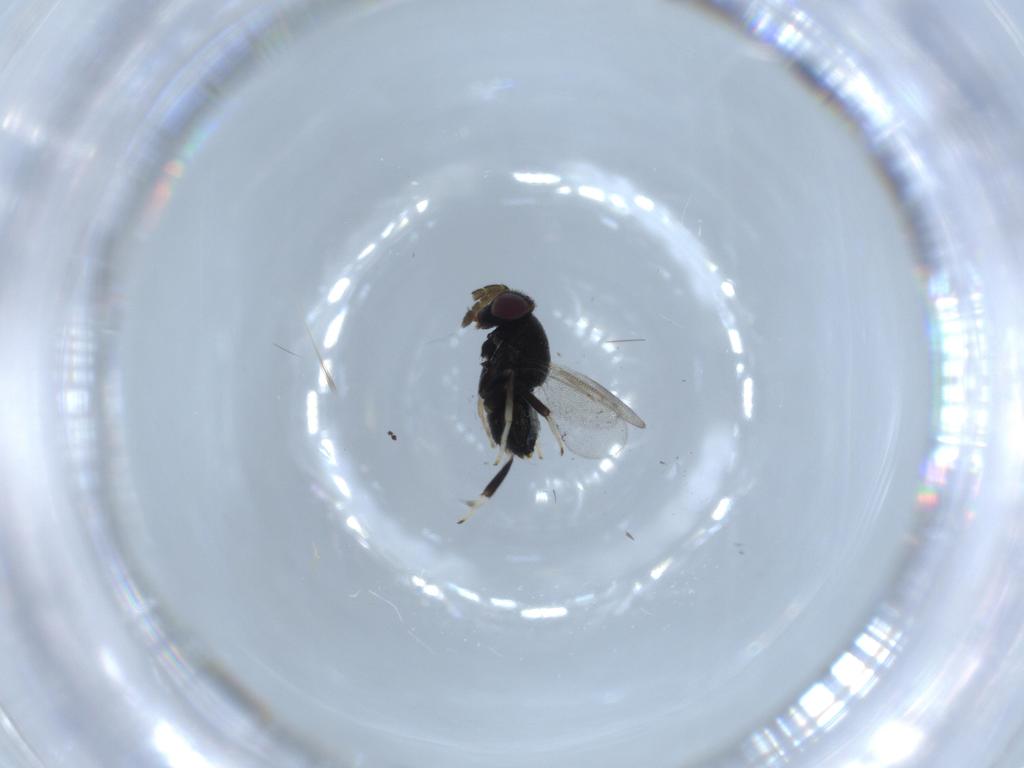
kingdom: Animalia
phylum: Arthropoda
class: Insecta
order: Hymenoptera
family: Aphelinidae
